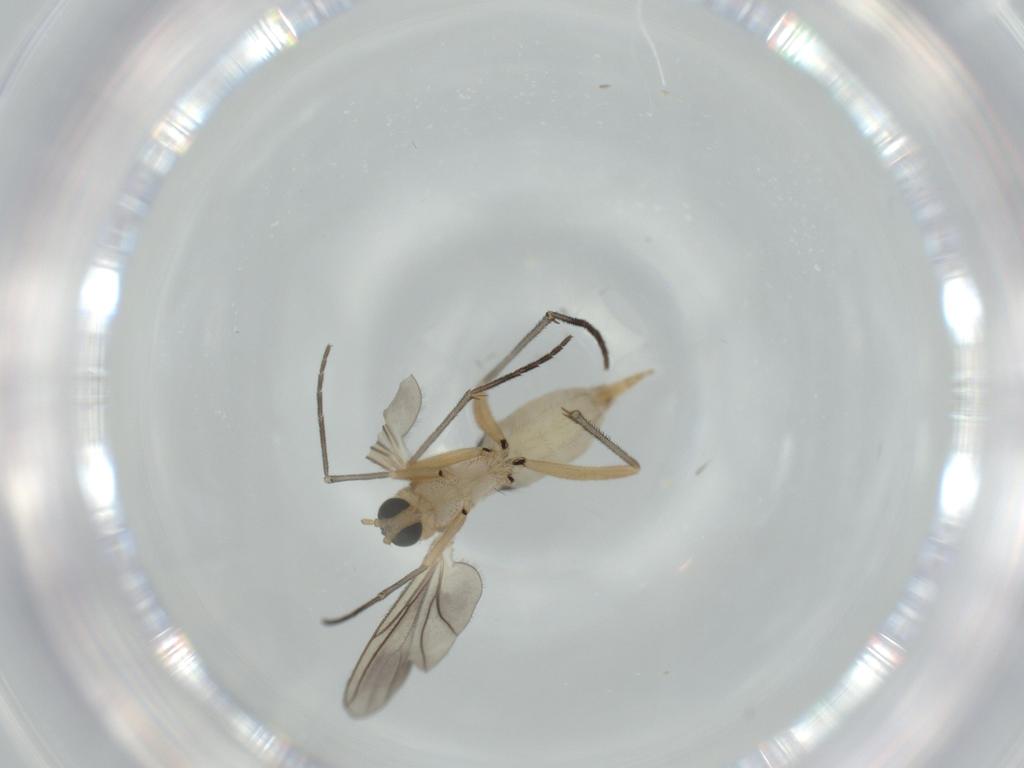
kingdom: Animalia
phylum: Arthropoda
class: Insecta
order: Diptera
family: Sciaridae
